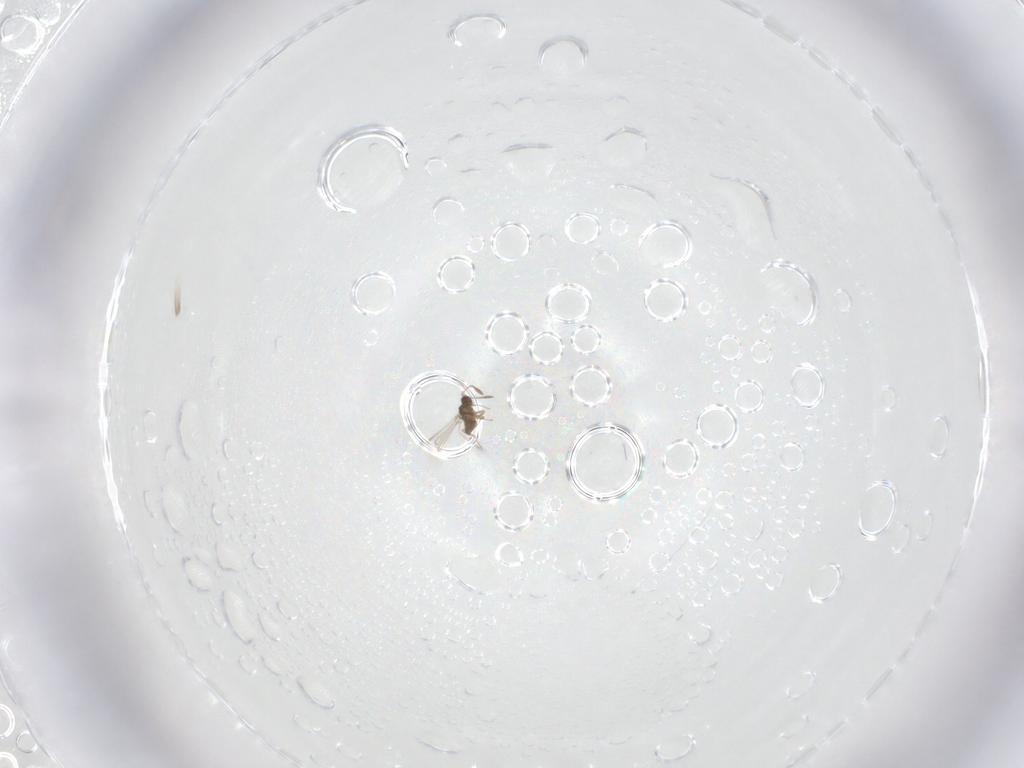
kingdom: Animalia
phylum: Arthropoda
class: Insecta
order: Hymenoptera
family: Mymaridae
